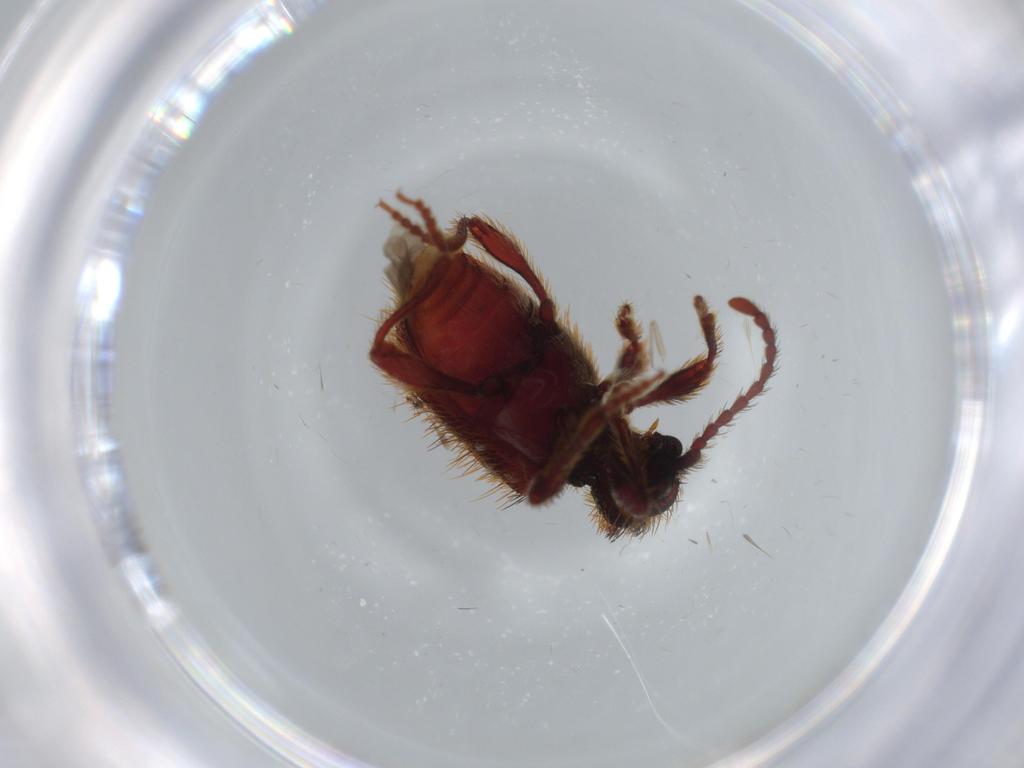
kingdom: Animalia
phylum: Arthropoda
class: Insecta
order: Coleoptera
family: Ptinidae
